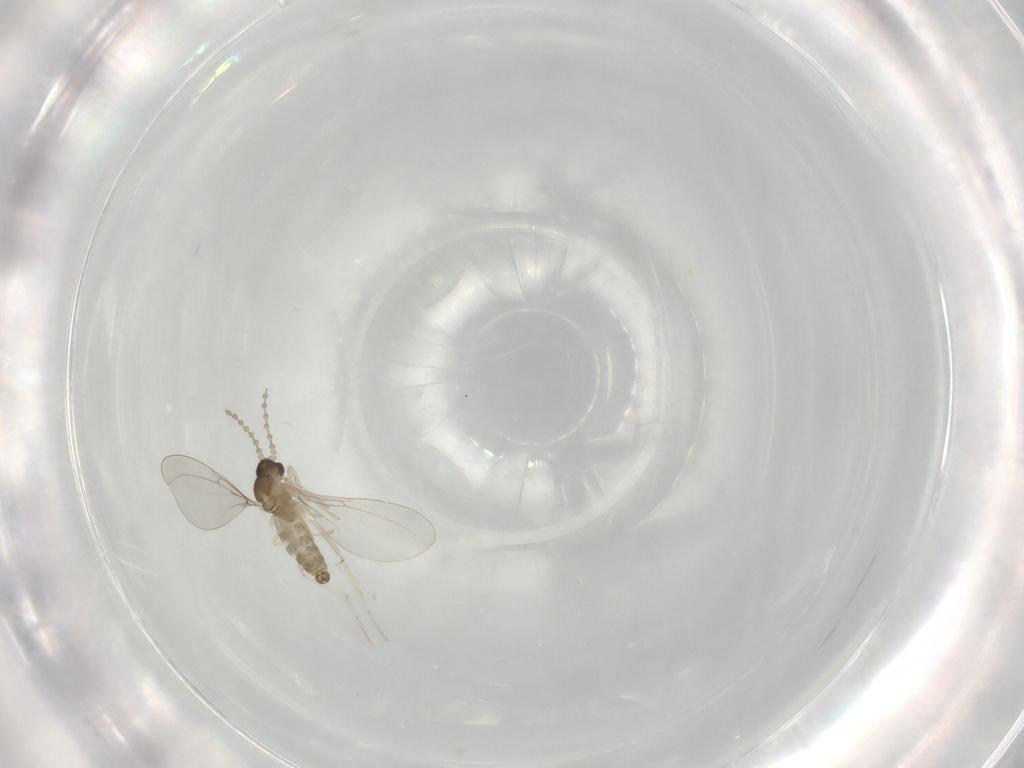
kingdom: Animalia
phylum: Arthropoda
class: Insecta
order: Diptera
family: Cecidomyiidae
